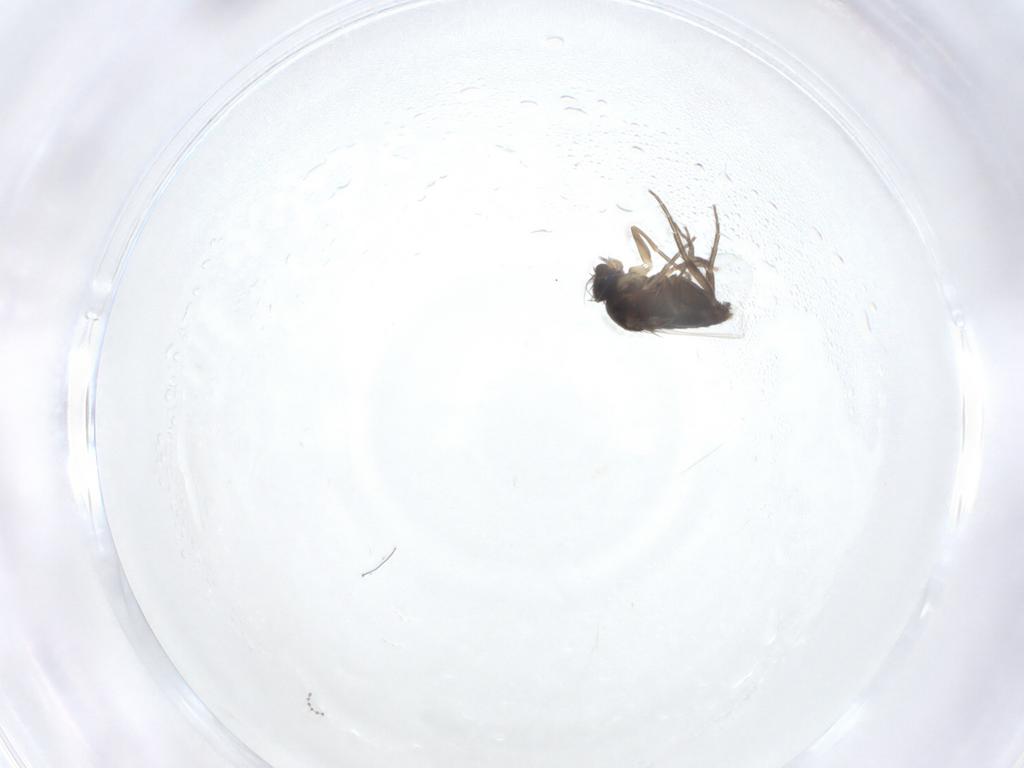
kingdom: Animalia
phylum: Arthropoda
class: Insecta
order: Diptera
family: Phoridae
